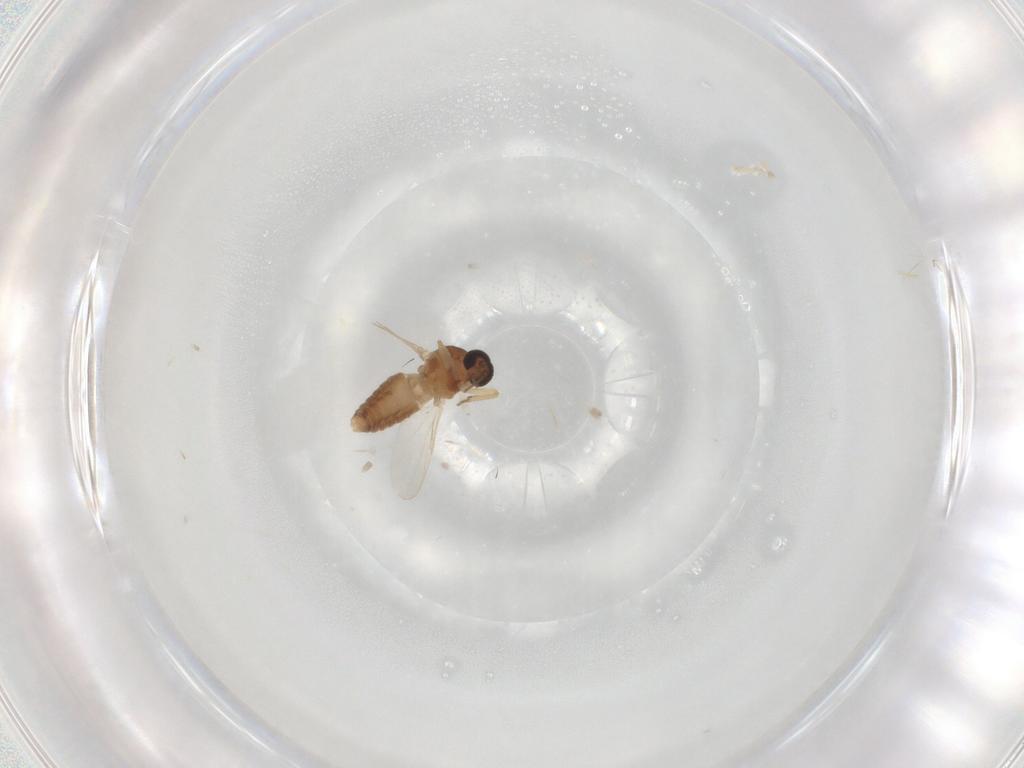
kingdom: Animalia
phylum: Arthropoda
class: Insecta
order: Diptera
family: Ceratopogonidae
